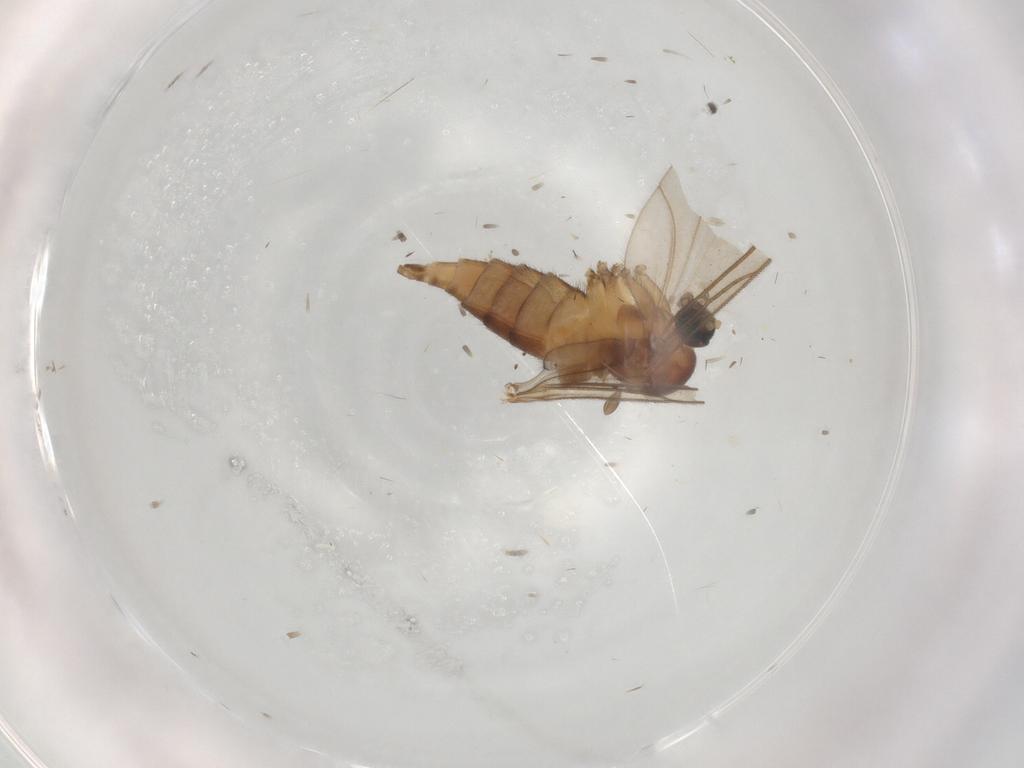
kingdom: Animalia
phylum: Arthropoda
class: Insecta
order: Diptera
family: Sciaridae
